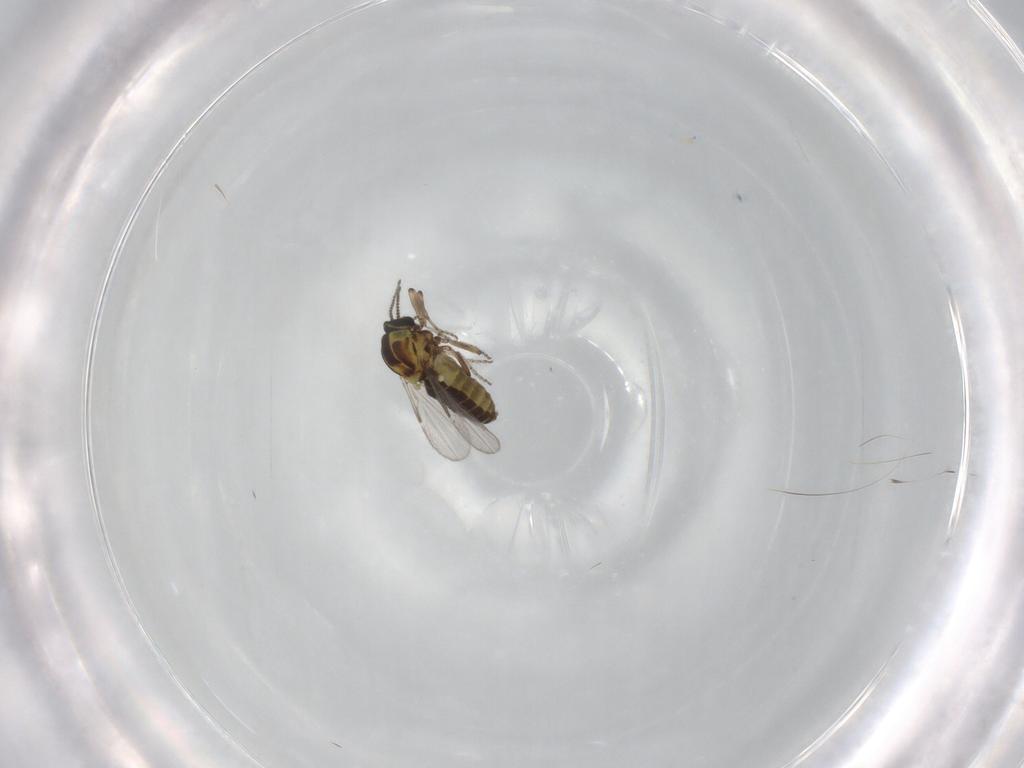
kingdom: Animalia
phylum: Arthropoda
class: Insecta
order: Diptera
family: Ceratopogonidae
